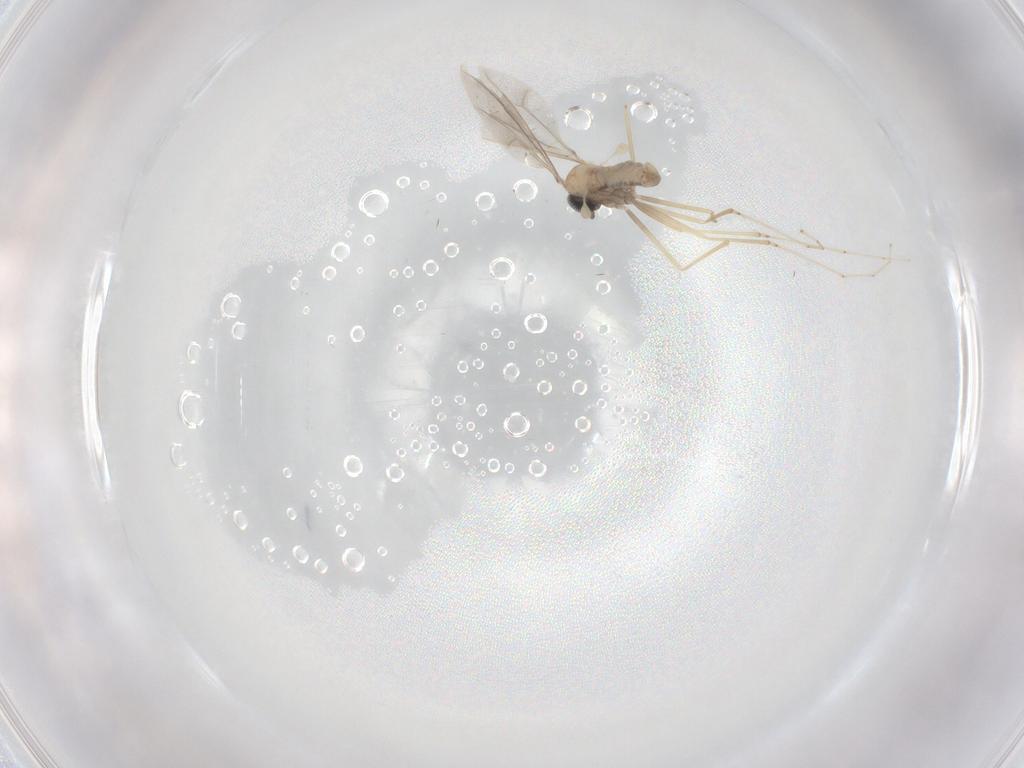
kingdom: Animalia
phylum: Arthropoda
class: Insecta
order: Diptera
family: Cecidomyiidae
